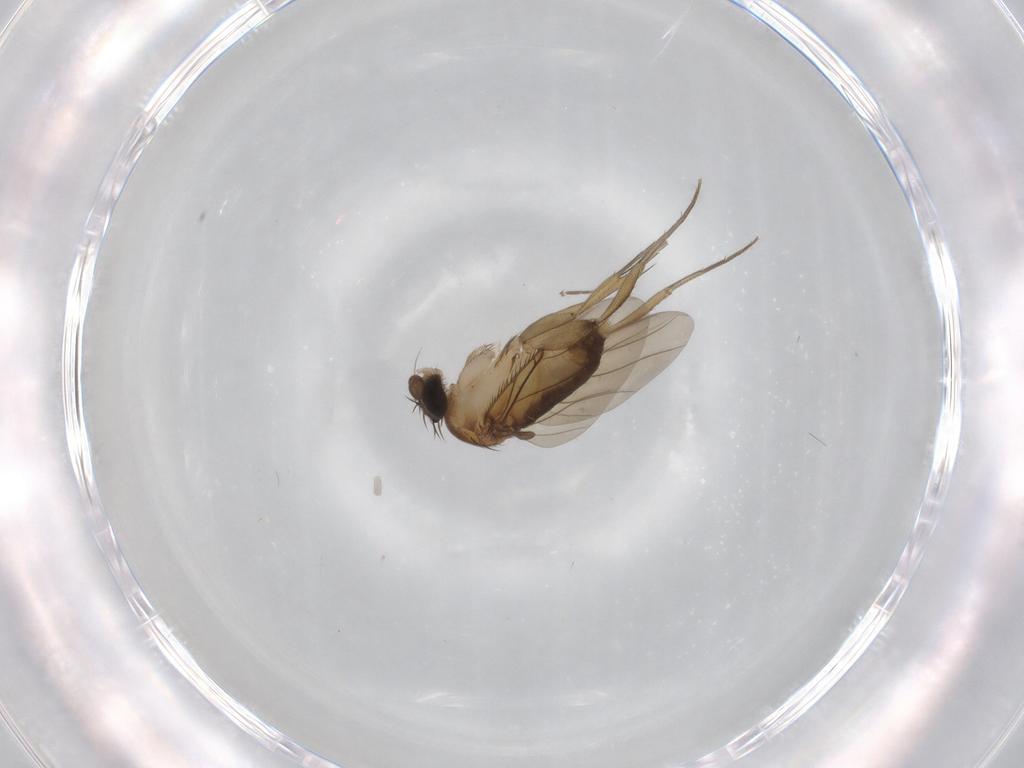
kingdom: Animalia
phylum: Arthropoda
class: Insecta
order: Diptera
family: Phoridae
